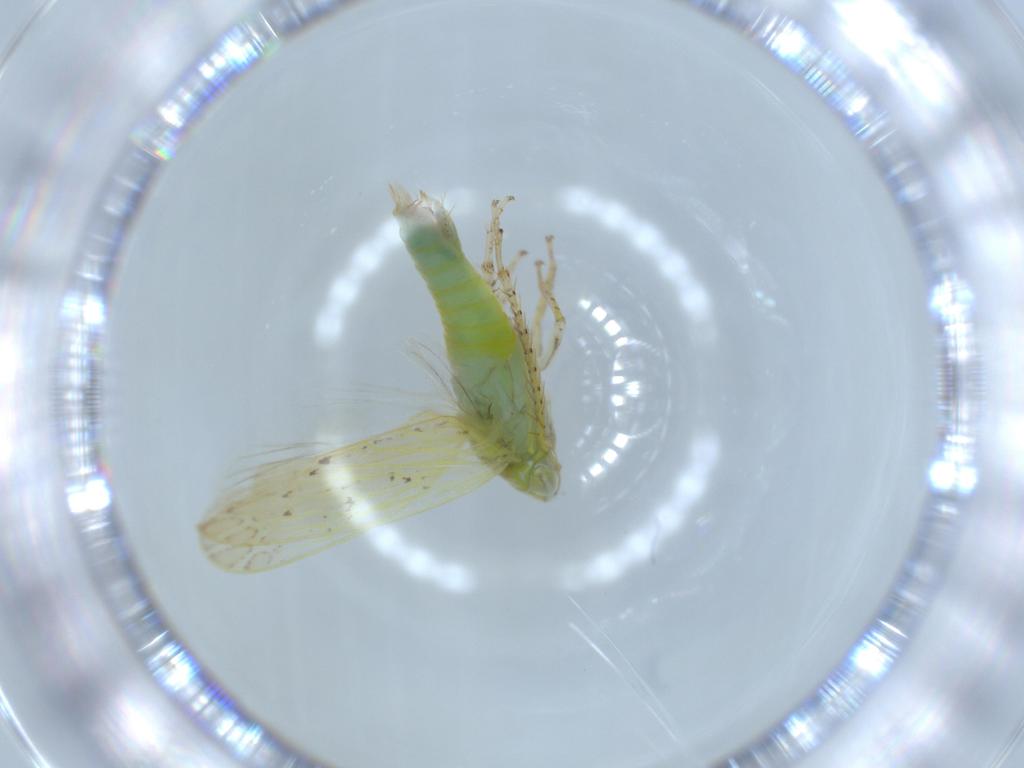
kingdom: Animalia
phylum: Arthropoda
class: Insecta
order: Hemiptera
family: Cicadellidae
